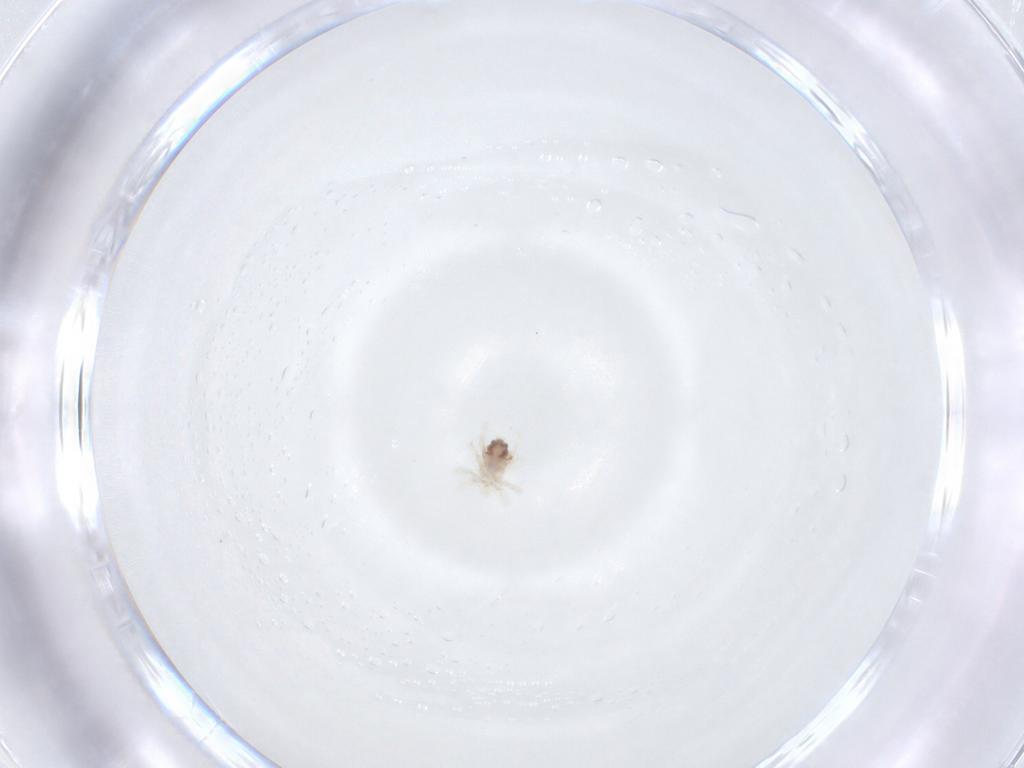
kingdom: Animalia
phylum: Arthropoda
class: Arachnida
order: Trombidiformes
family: Anystidae
